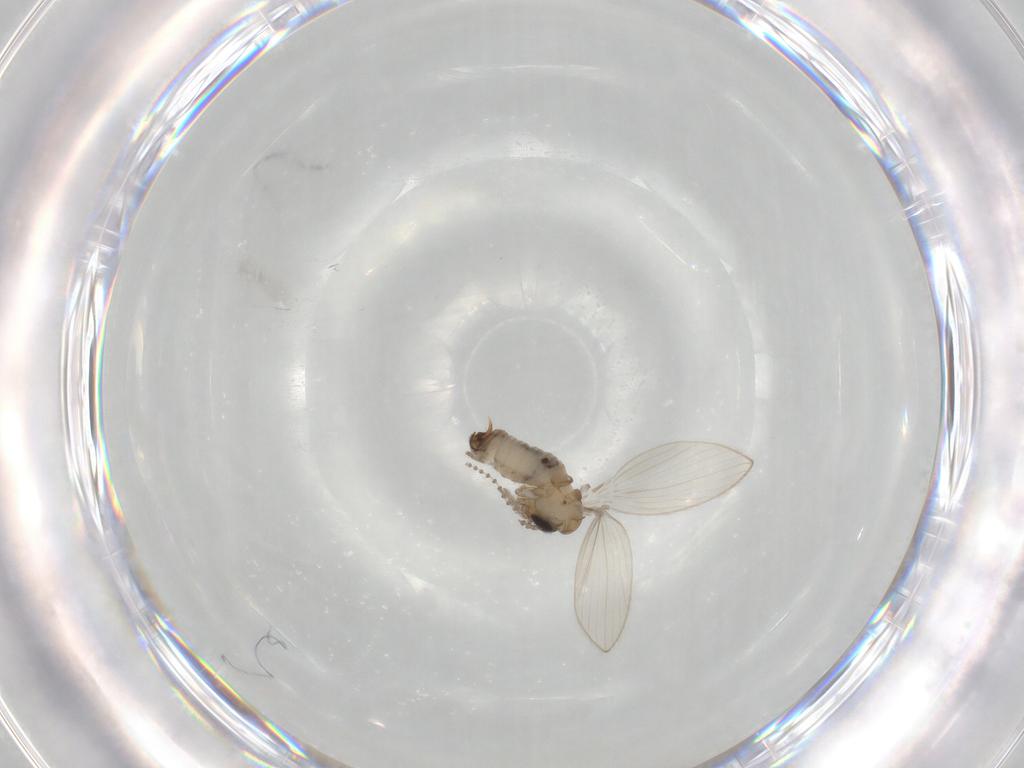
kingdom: Animalia
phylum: Arthropoda
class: Insecta
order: Diptera
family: Psychodidae
